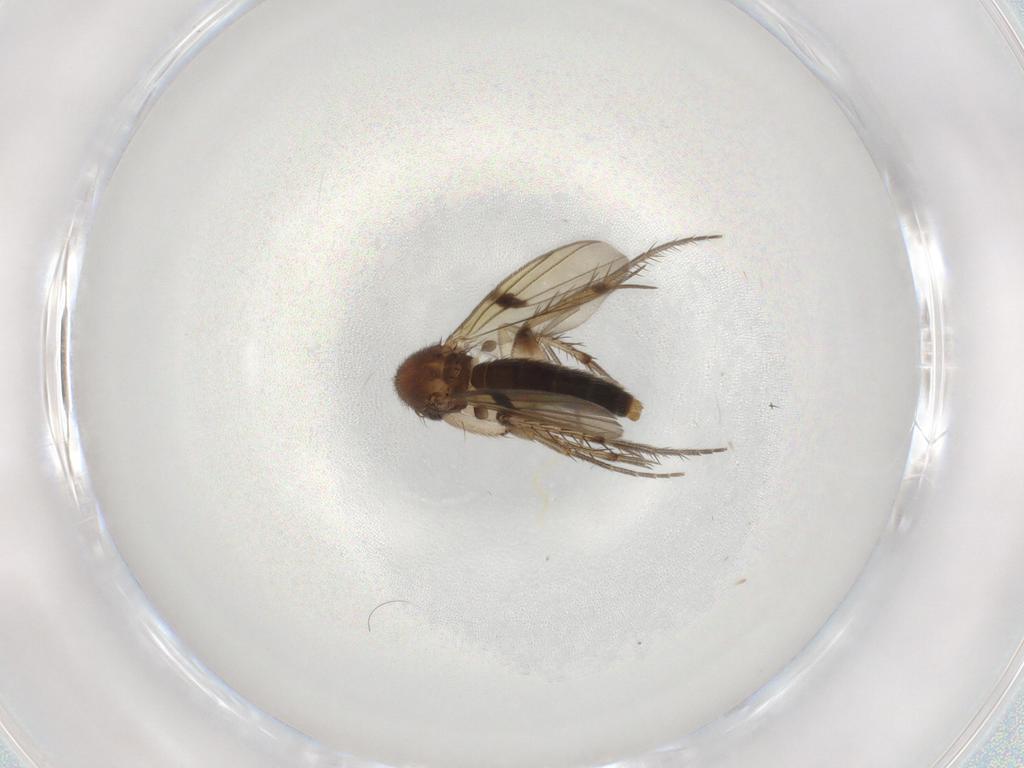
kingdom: Animalia
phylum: Arthropoda
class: Insecta
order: Diptera
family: Mycetophilidae
